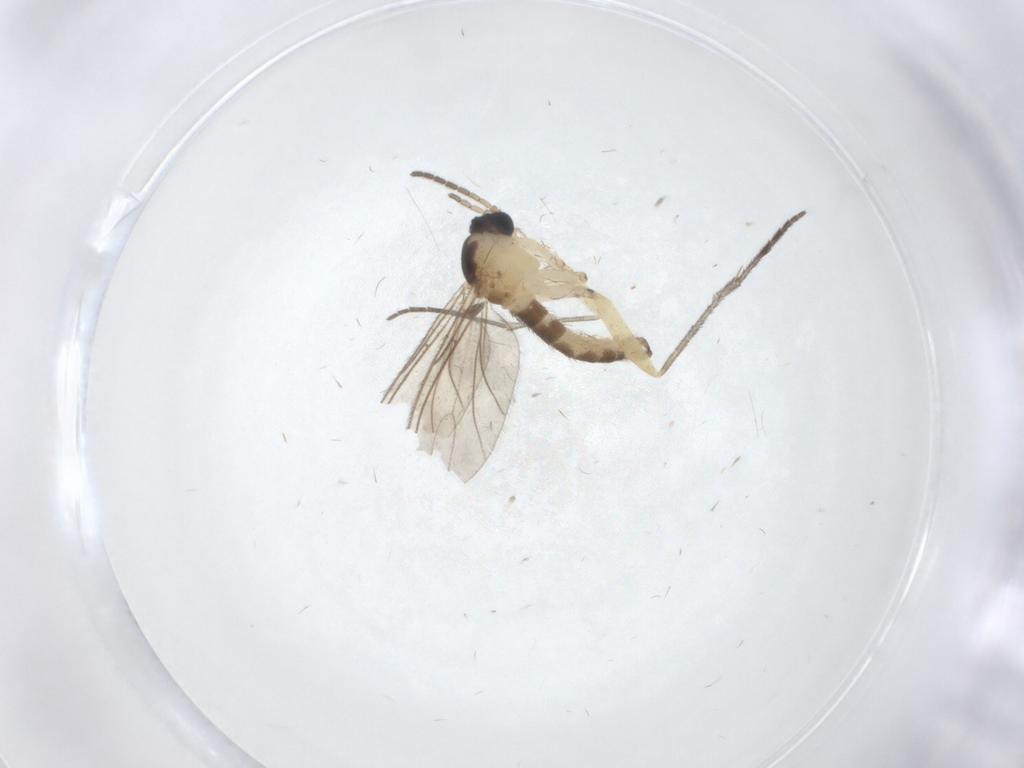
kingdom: Animalia
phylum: Arthropoda
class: Insecta
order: Diptera
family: Sciaridae
